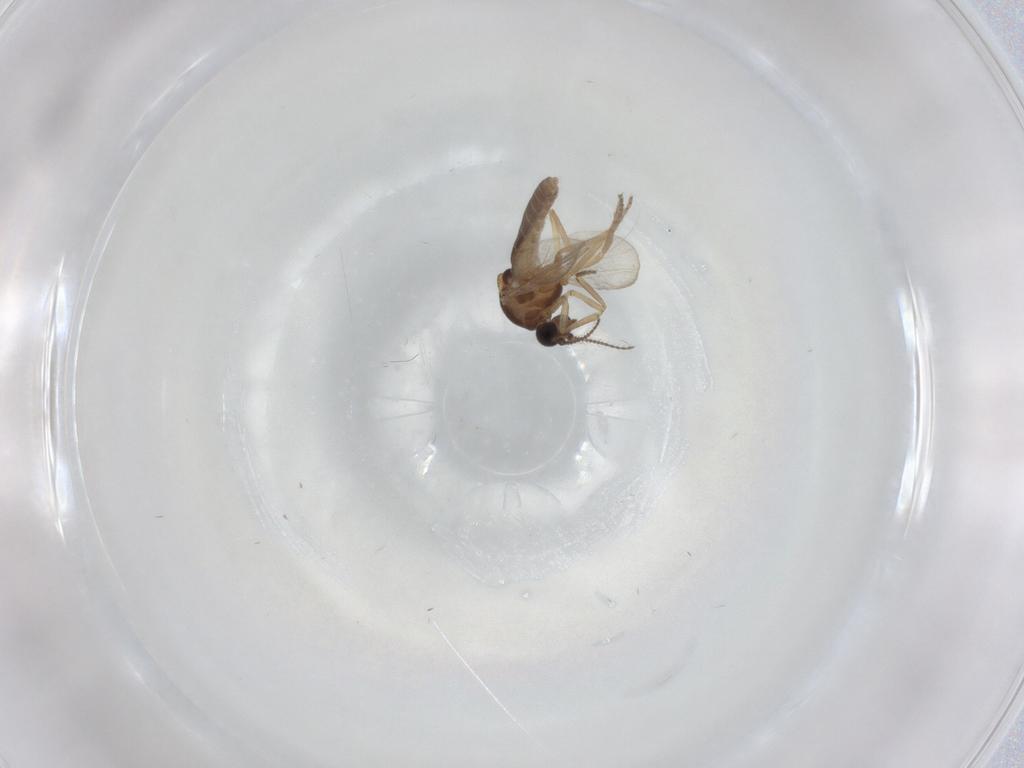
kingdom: Animalia
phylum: Arthropoda
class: Insecta
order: Diptera
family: Ceratopogonidae
